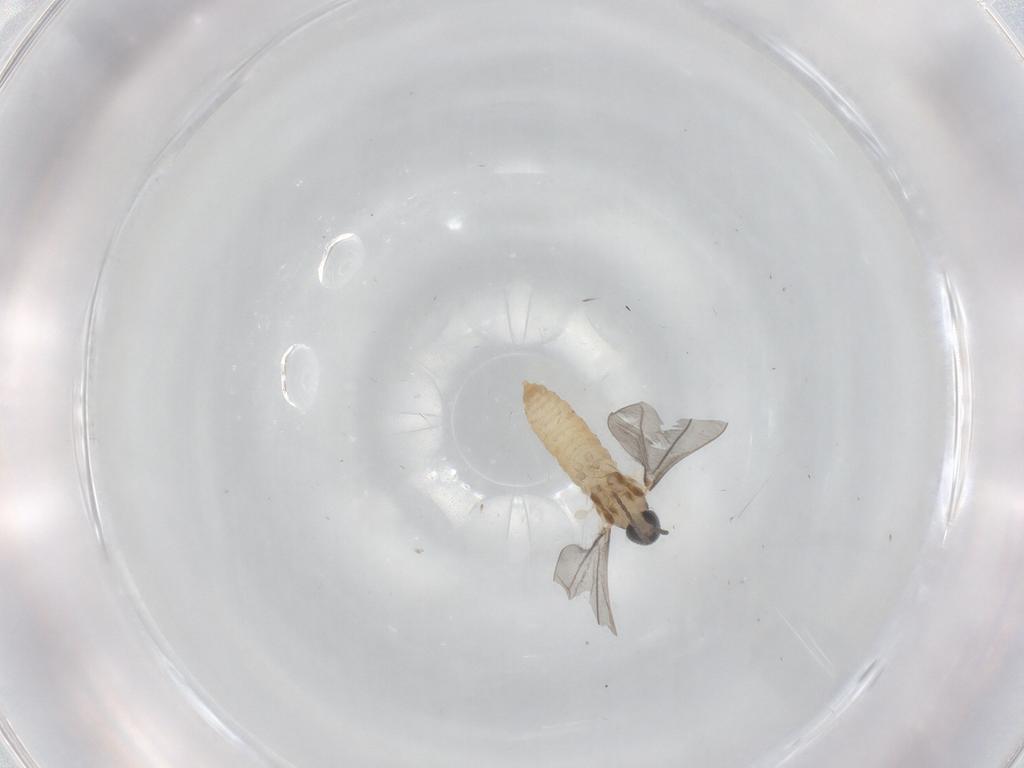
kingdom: Animalia
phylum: Arthropoda
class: Insecta
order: Diptera
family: Cecidomyiidae
